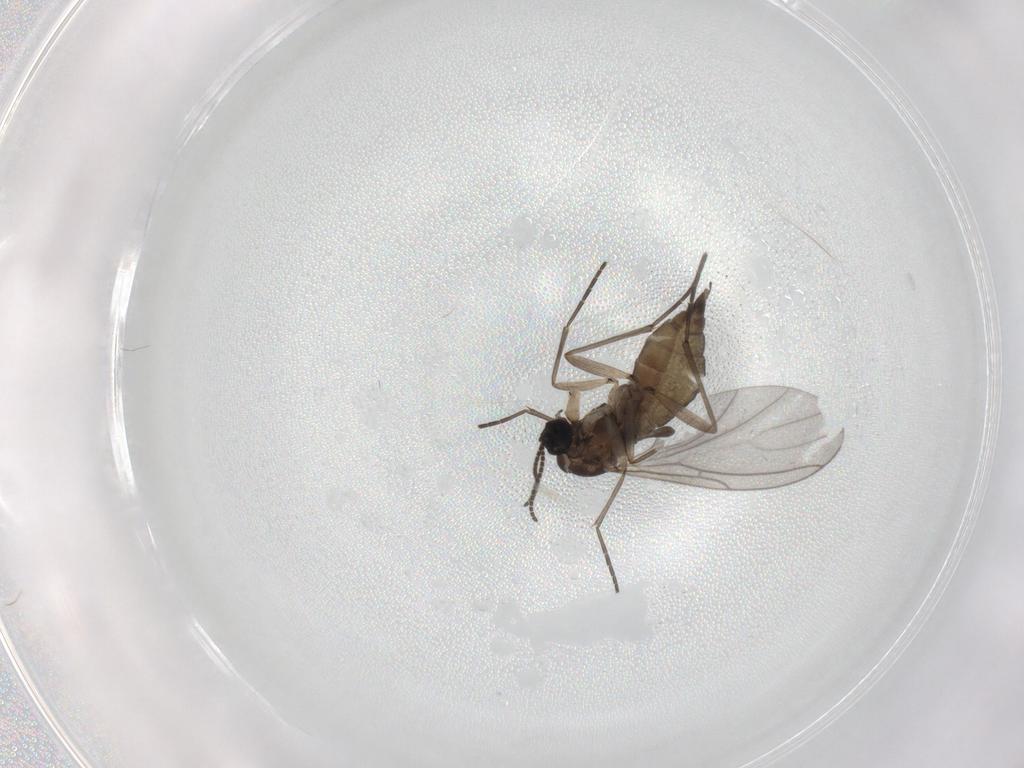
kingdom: Animalia
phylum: Arthropoda
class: Insecta
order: Diptera
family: Sciaridae
